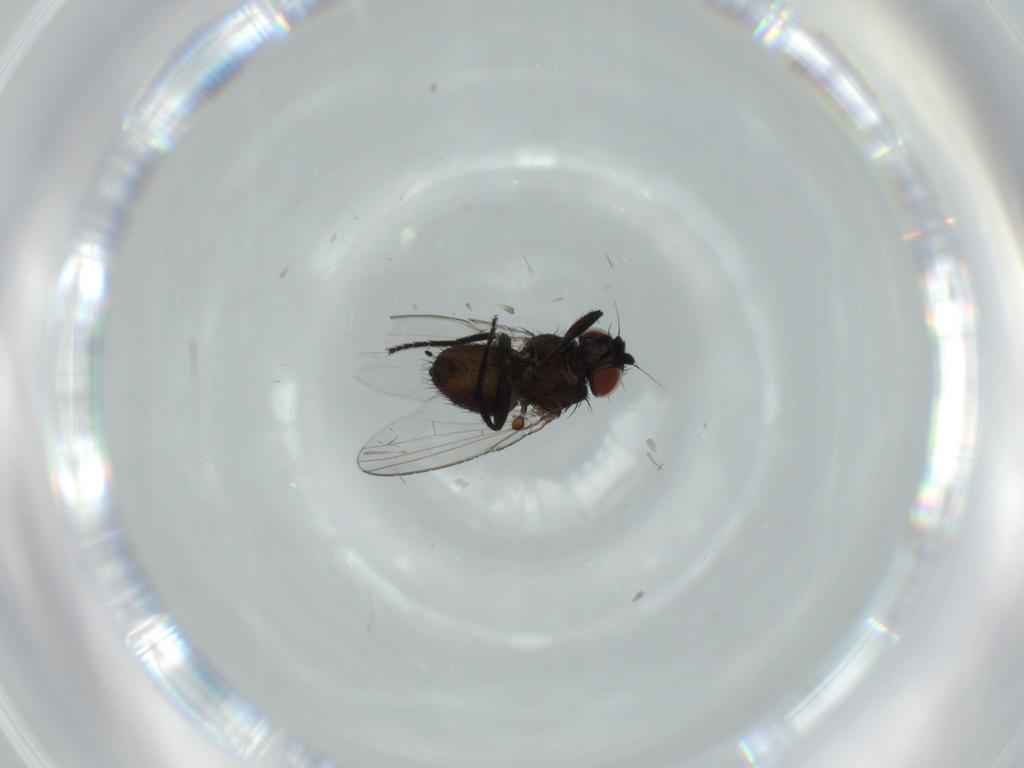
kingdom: Animalia
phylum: Arthropoda
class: Insecta
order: Diptera
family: Milichiidae
